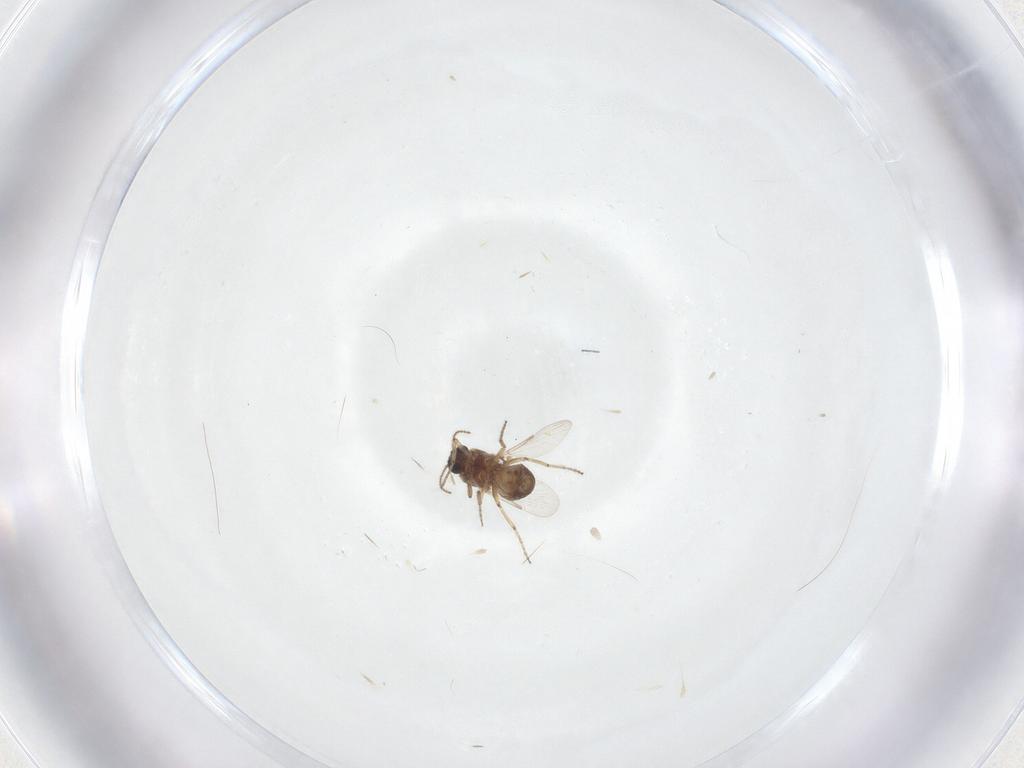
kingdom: Animalia
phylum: Arthropoda
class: Insecta
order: Diptera
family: Ceratopogonidae
